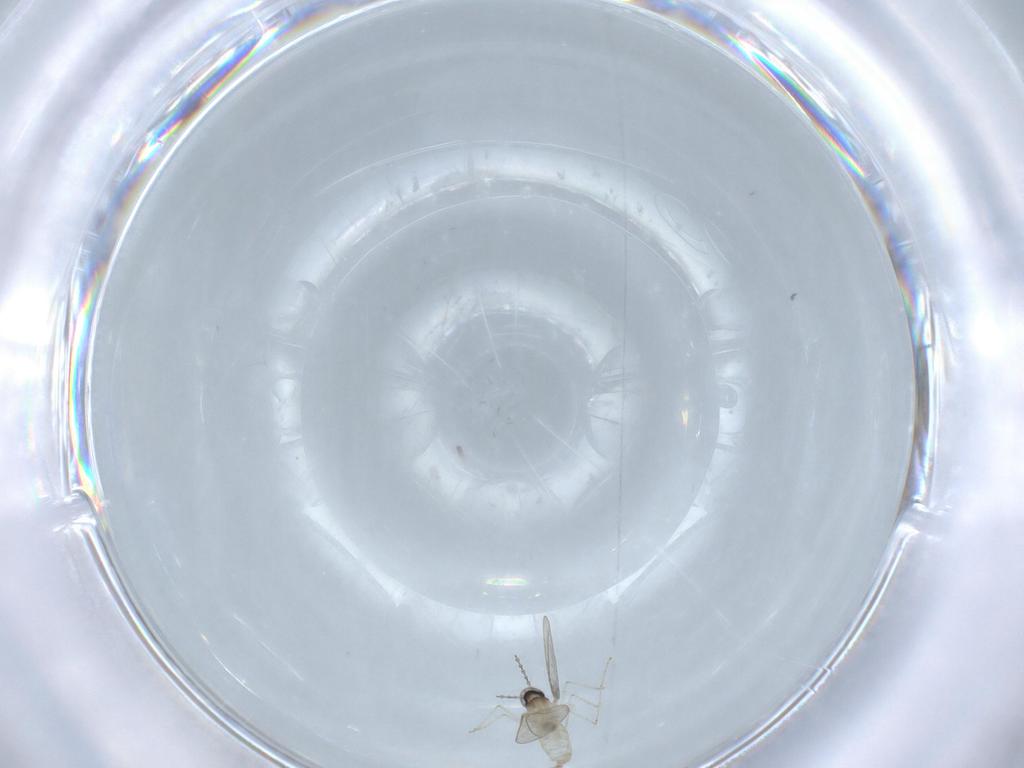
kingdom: Animalia
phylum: Arthropoda
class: Insecta
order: Diptera
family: Cecidomyiidae
